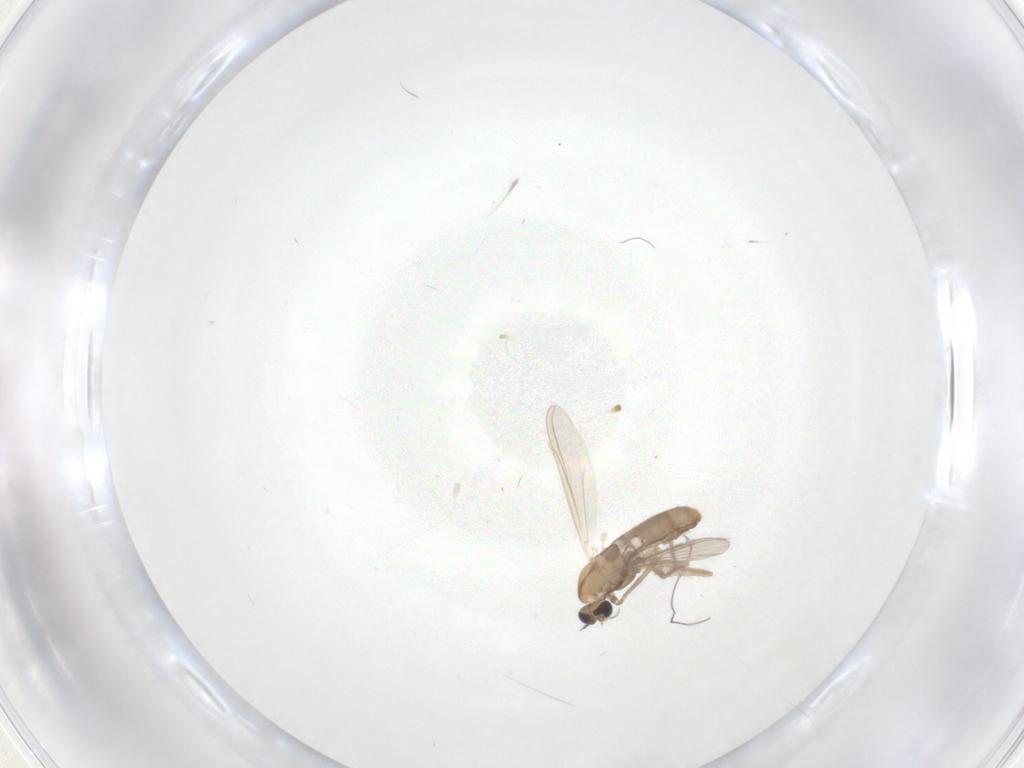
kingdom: Animalia
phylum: Arthropoda
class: Insecta
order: Diptera
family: Chironomidae
